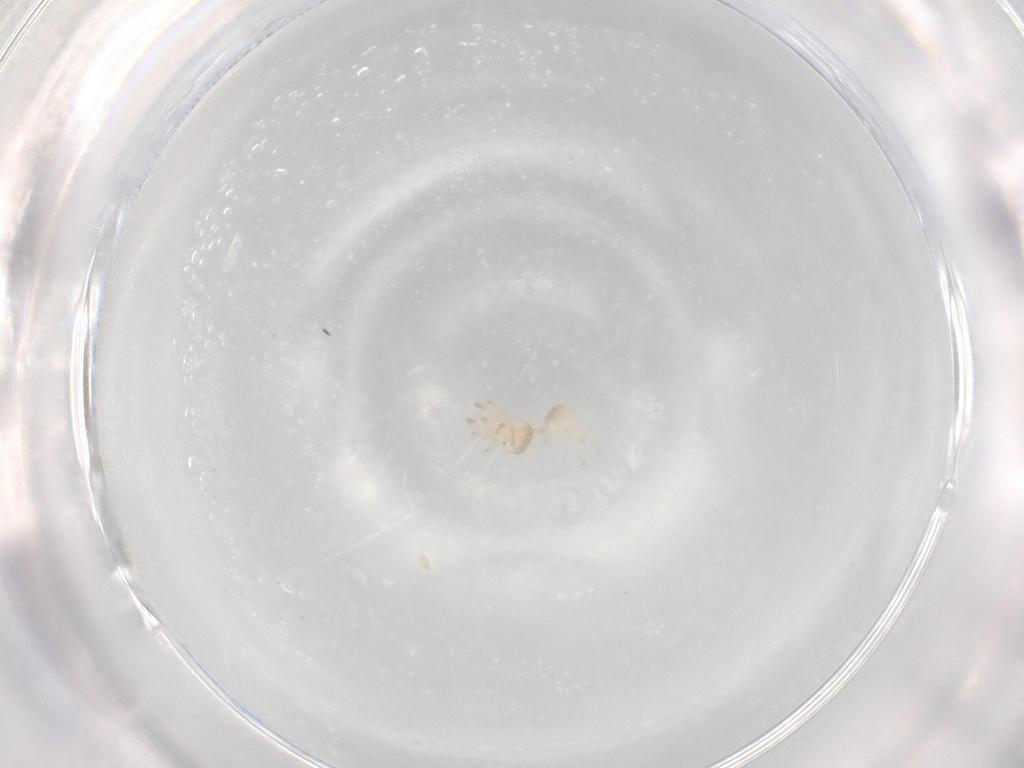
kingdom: Animalia
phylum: Arthropoda
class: Arachnida
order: Mesostigmata
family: Zerconidae
